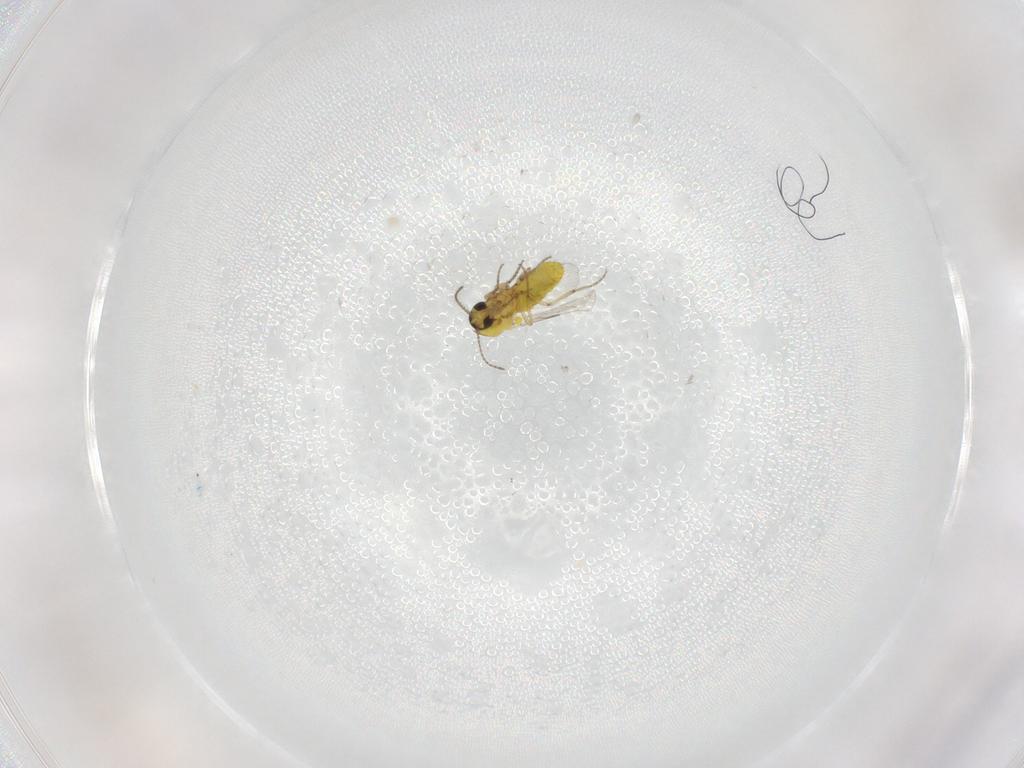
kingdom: Animalia
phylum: Arthropoda
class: Insecta
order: Diptera
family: Ceratopogonidae
